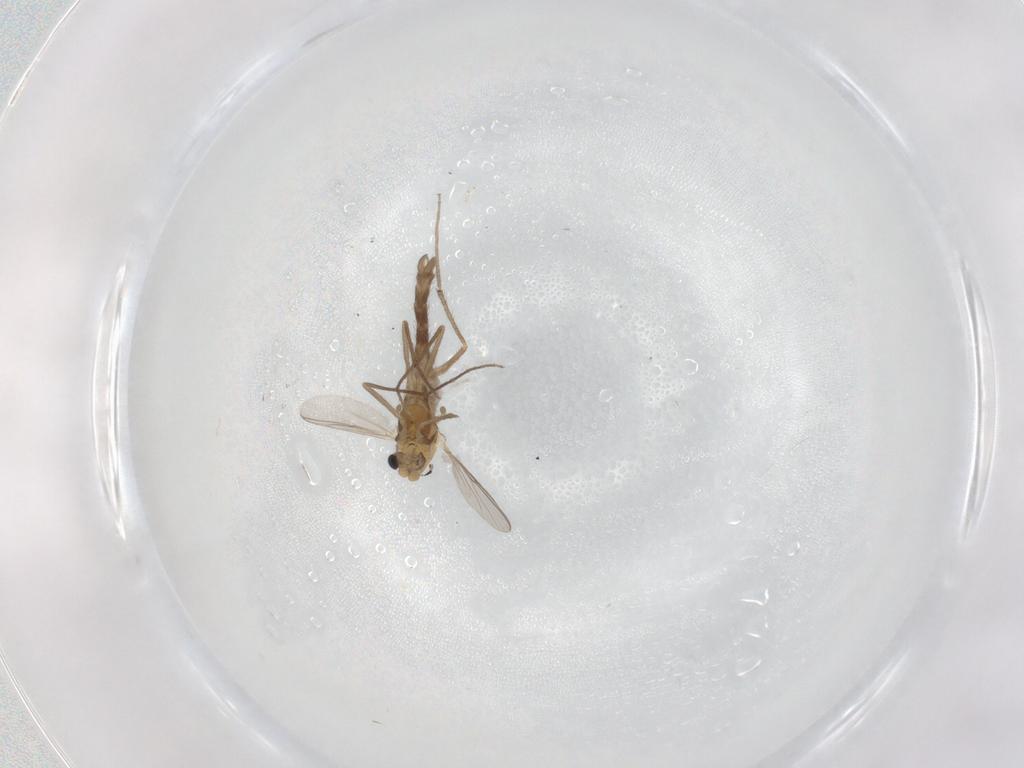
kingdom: Animalia
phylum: Arthropoda
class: Insecta
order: Diptera
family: Chironomidae
